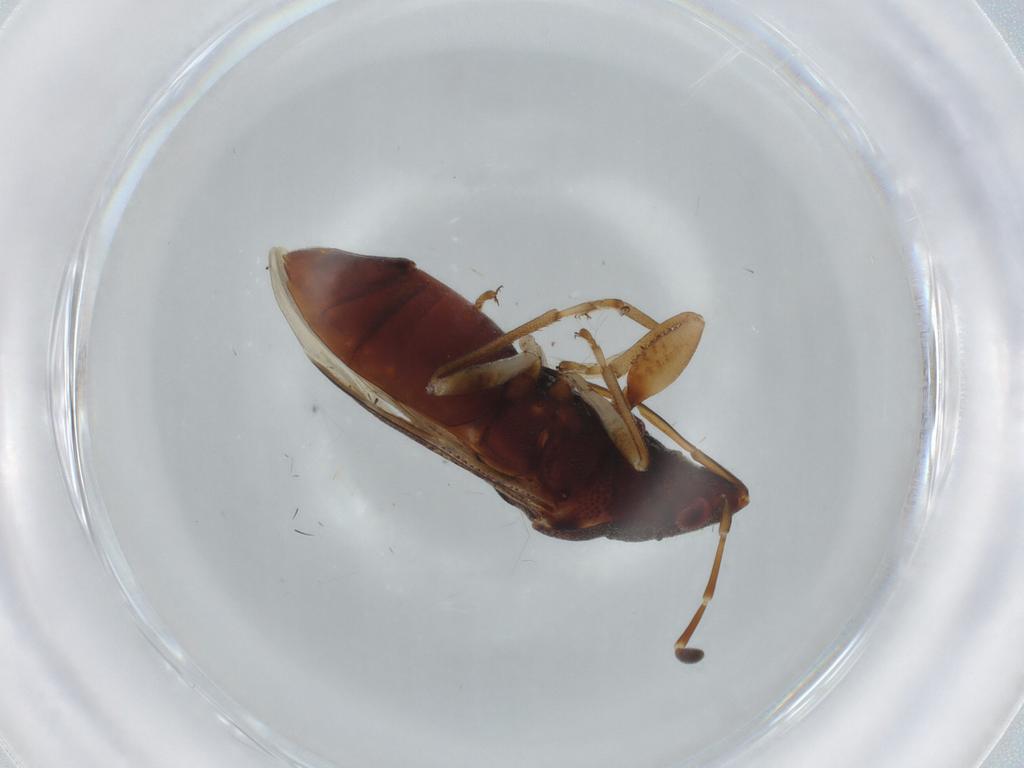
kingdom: Animalia
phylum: Arthropoda
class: Insecta
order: Hemiptera
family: Rhyparochromidae
